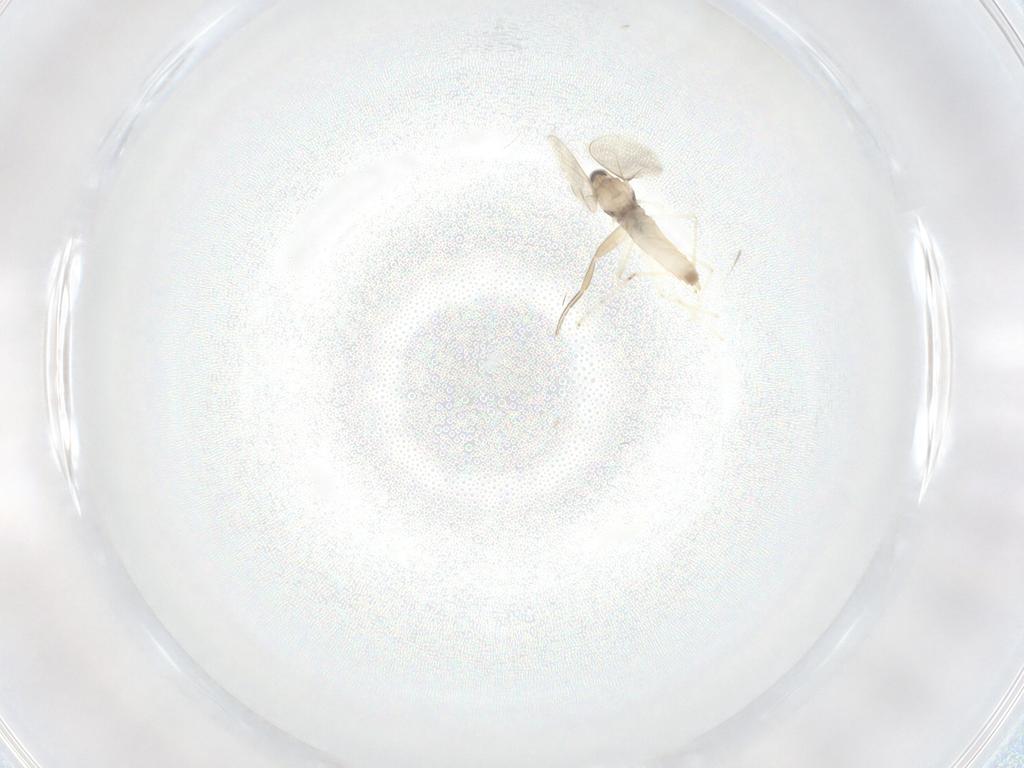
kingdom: Animalia
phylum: Arthropoda
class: Insecta
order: Diptera
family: Cecidomyiidae
